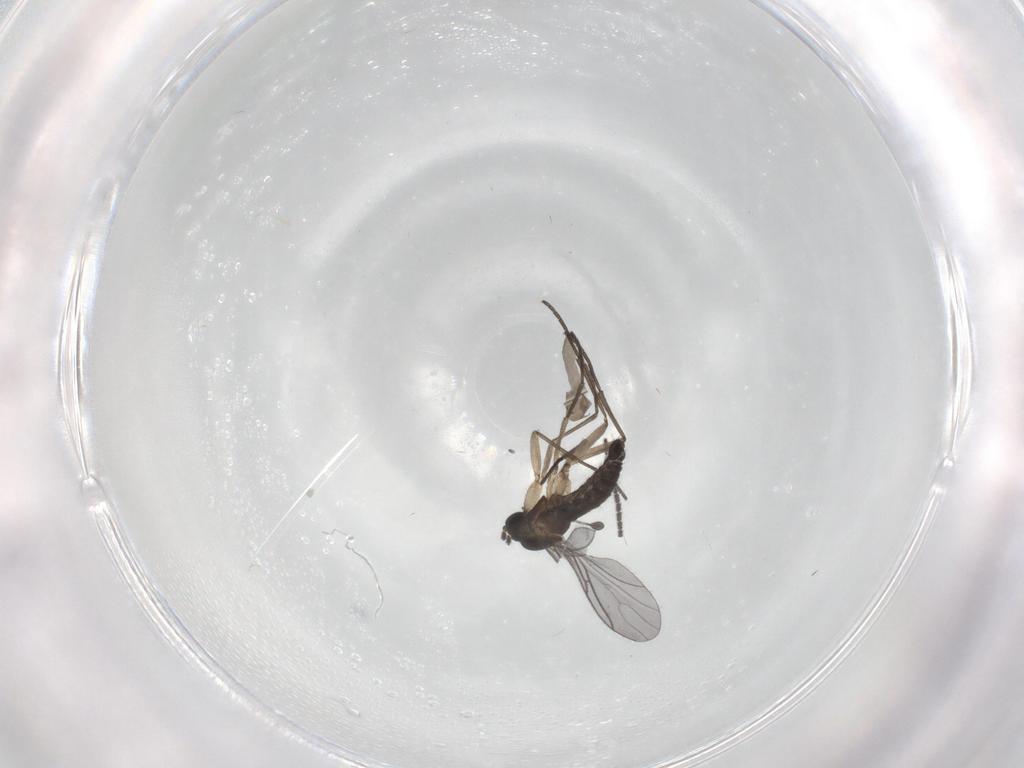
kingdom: Animalia
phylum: Arthropoda
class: Insecta
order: Diptera
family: Sciaridae
